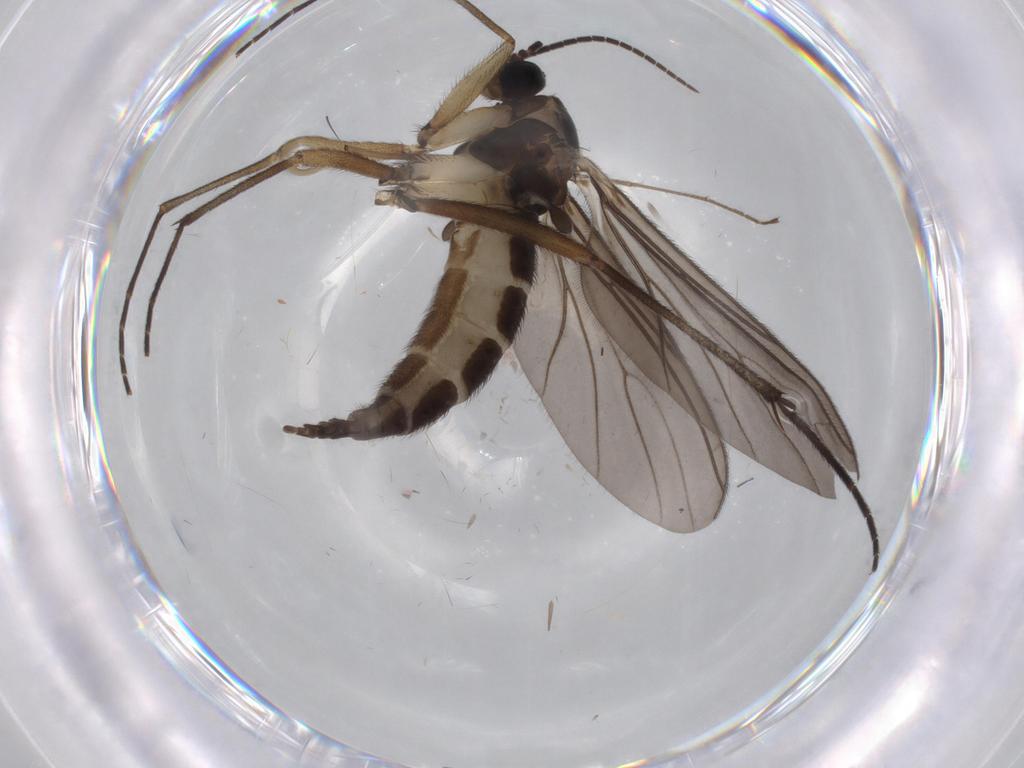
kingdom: Animalia
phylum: Arthropoda
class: Insecta
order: Diptera
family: Sciaridae
